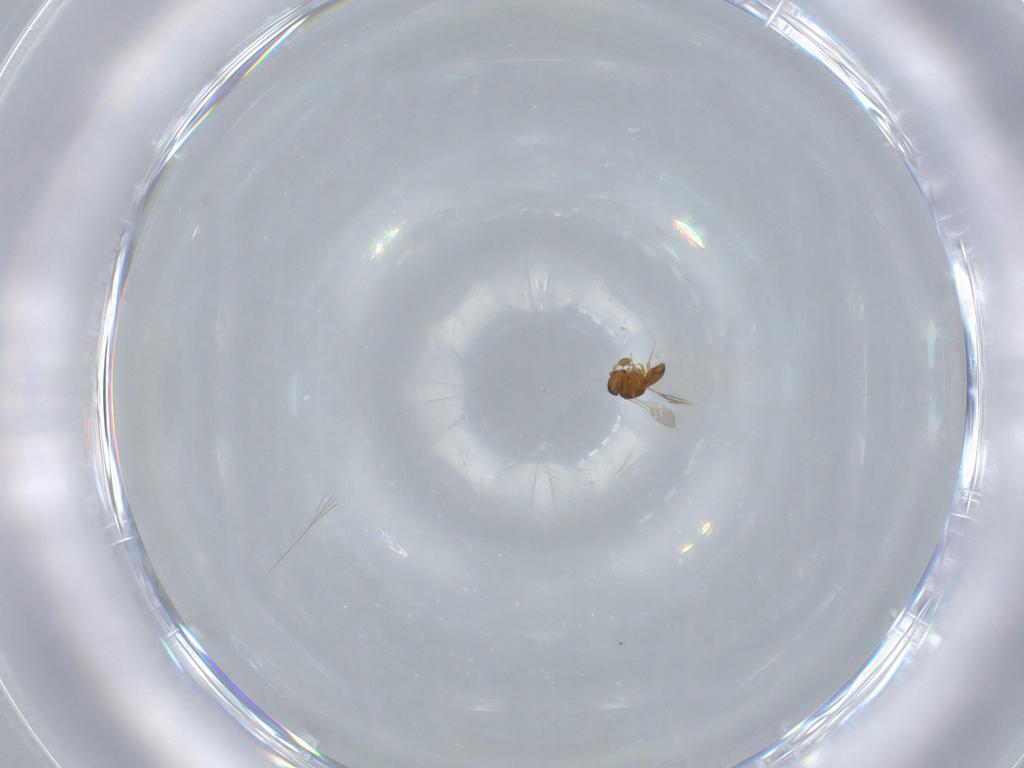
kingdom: Animalia
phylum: Arthropoda
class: Insecta
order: Hymenoptera
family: Scelionidae
